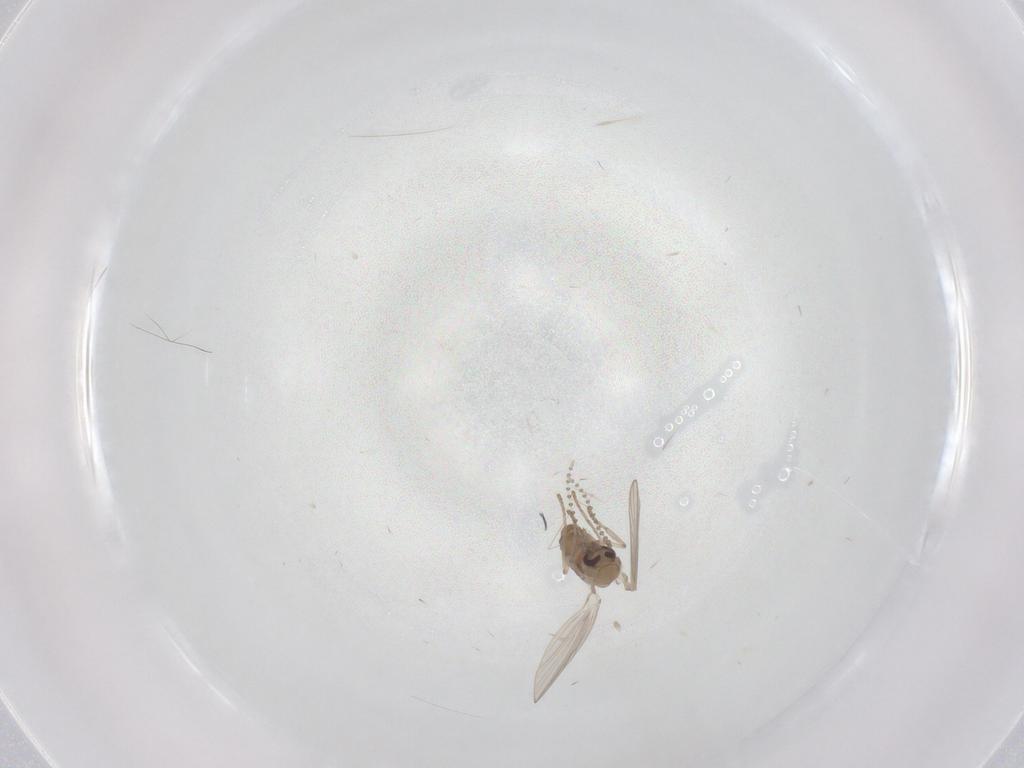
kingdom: Animalia
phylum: Arthropoda
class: Insecta
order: Diptera
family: Psychodidae
